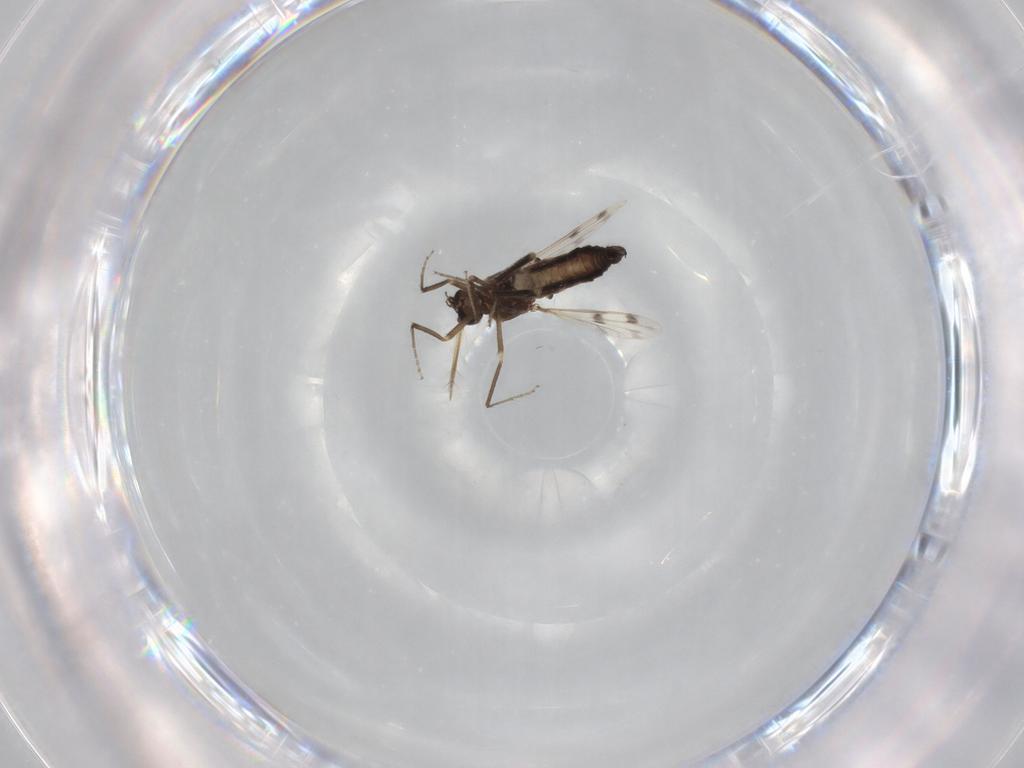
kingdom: Animalia
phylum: Arthropoda
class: Insecta
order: Diptera
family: Ceratopogonidae
